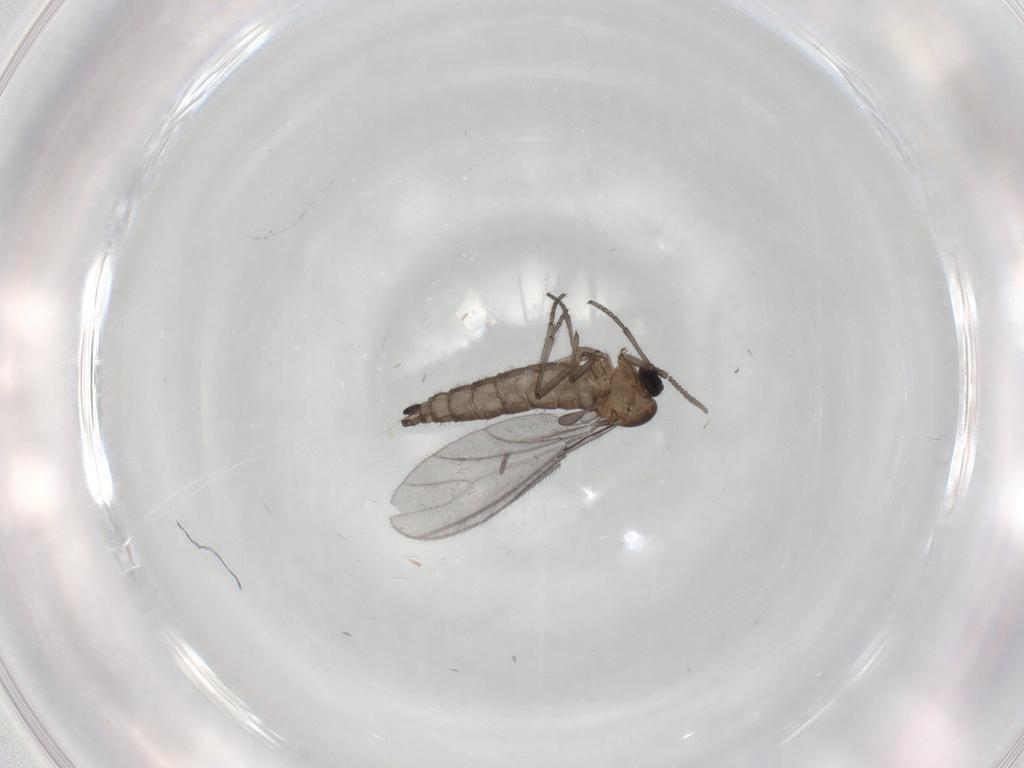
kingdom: Animalia
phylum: Arthropoda
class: Insecta
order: Diptera
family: Sciaridae
